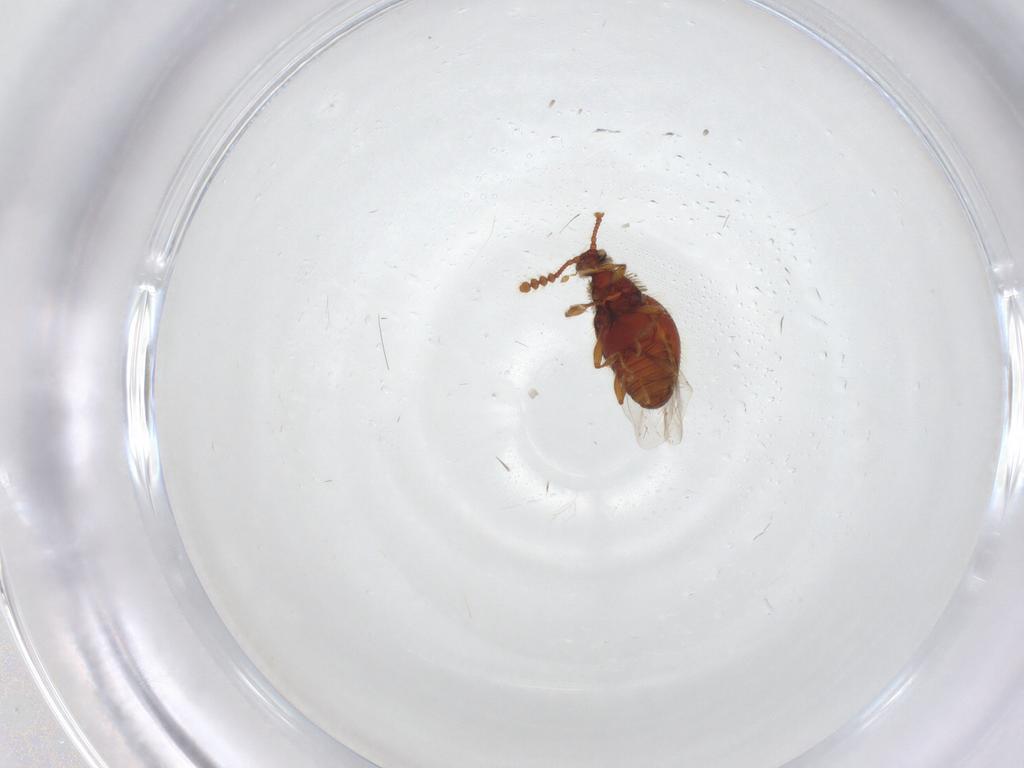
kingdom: Animalia
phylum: Arthropoda
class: Insecta
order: Coleoptera
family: Staphylinidae
